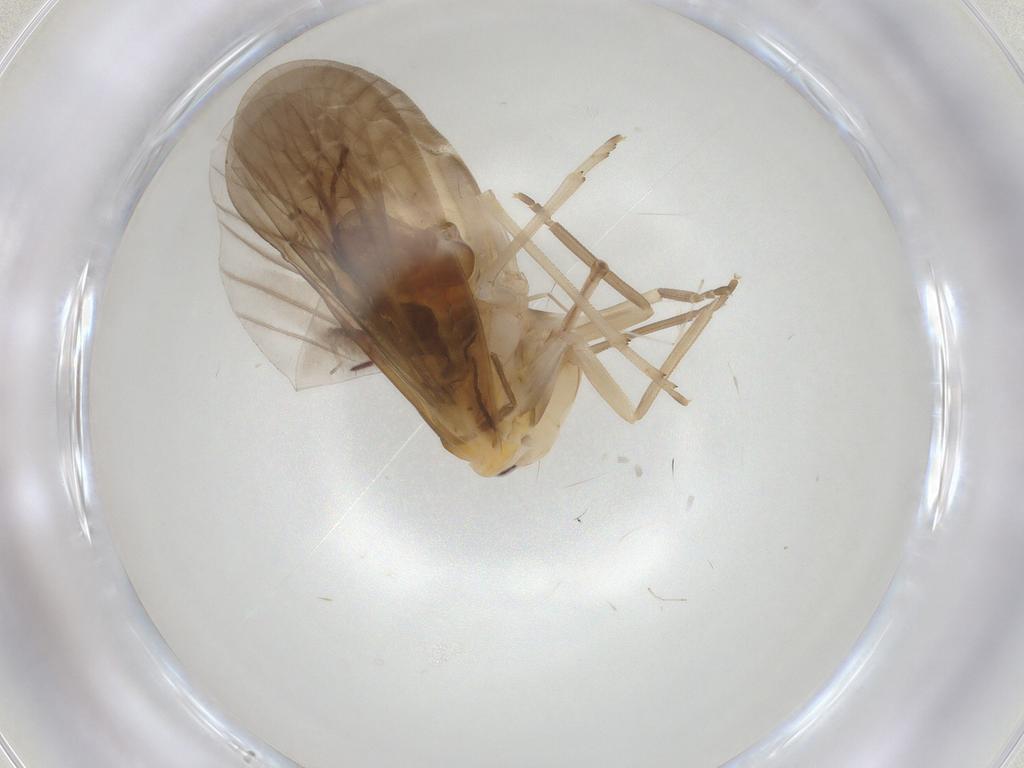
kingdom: Animalia
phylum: Arthropoda
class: Insecta
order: Hemiptera
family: Derbidae
